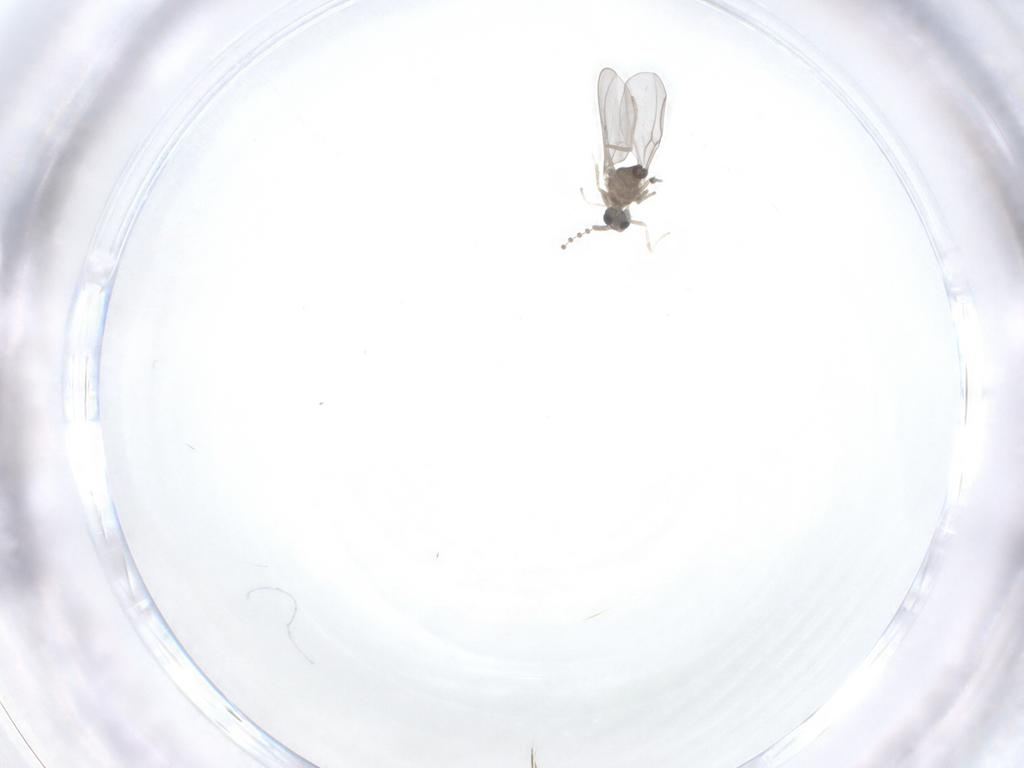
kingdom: Animalia
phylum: Arthropoda
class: Insecta
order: Diptera
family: Cecidomyiidae
